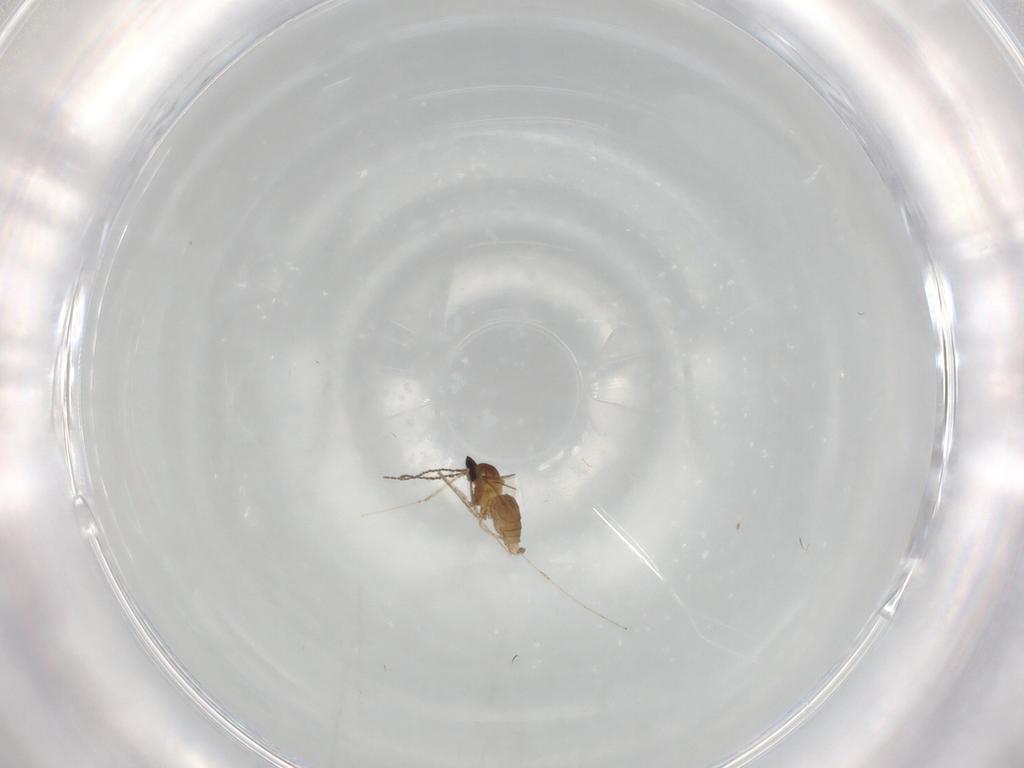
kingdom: Animalia
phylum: Arthropoda
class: Insecta
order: Diptera
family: Cecidomyiidae
